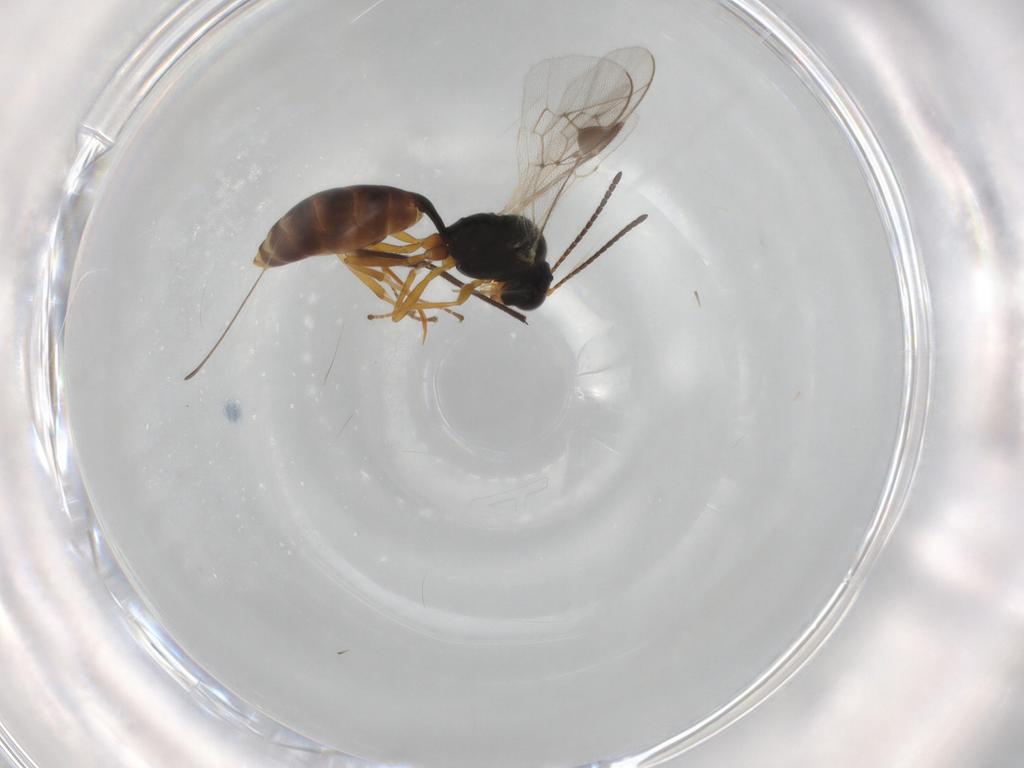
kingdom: Animalia
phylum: Arthropoda
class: Insecta
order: Hymenoptera
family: Ichneumonidae
